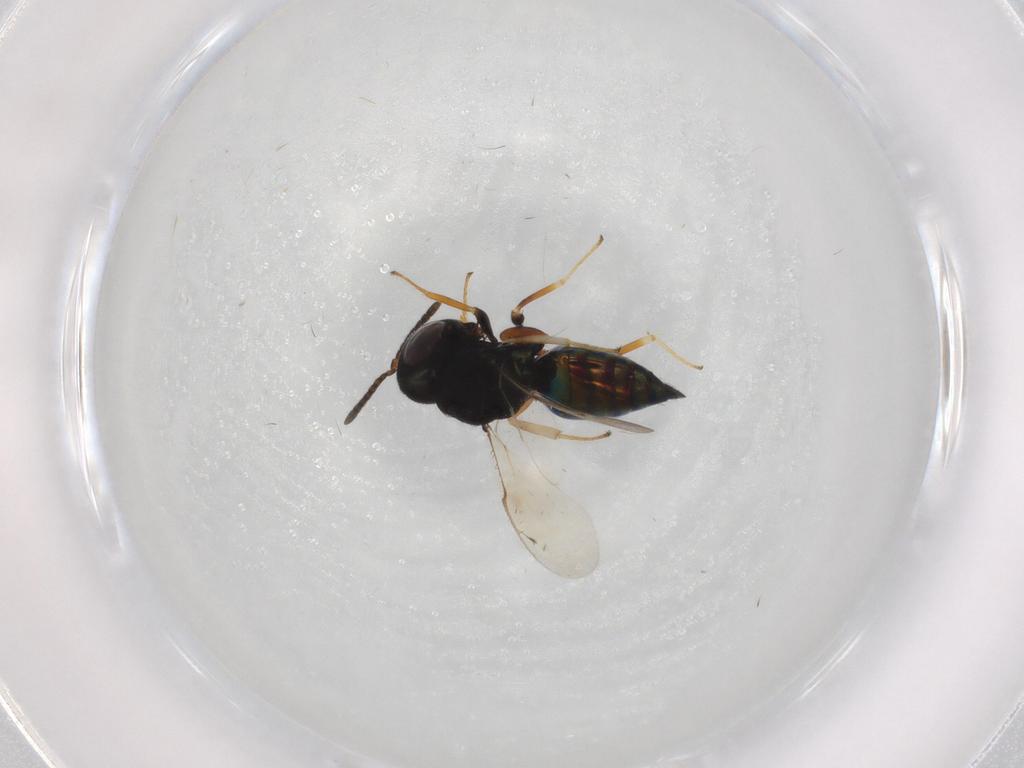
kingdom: Animalia
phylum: Arthropoda
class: Insecta
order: Hymenoptera
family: Pteromalidae
